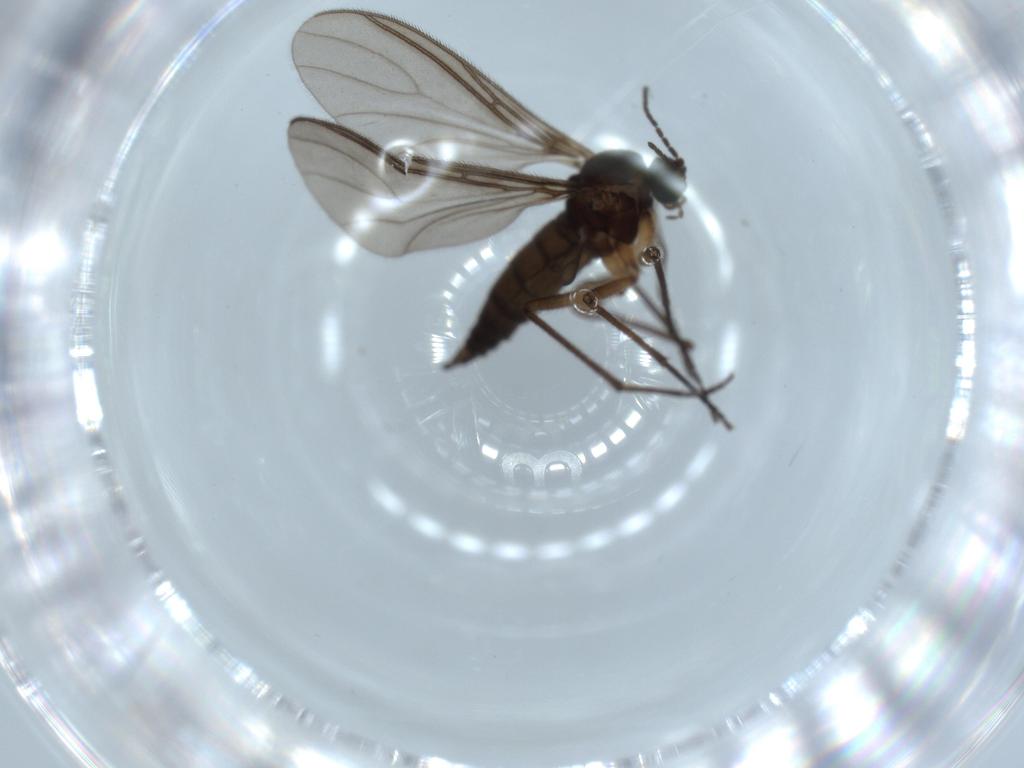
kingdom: Animalia
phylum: Arthropoda
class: Insecta
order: Diptera
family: Sciaridae
